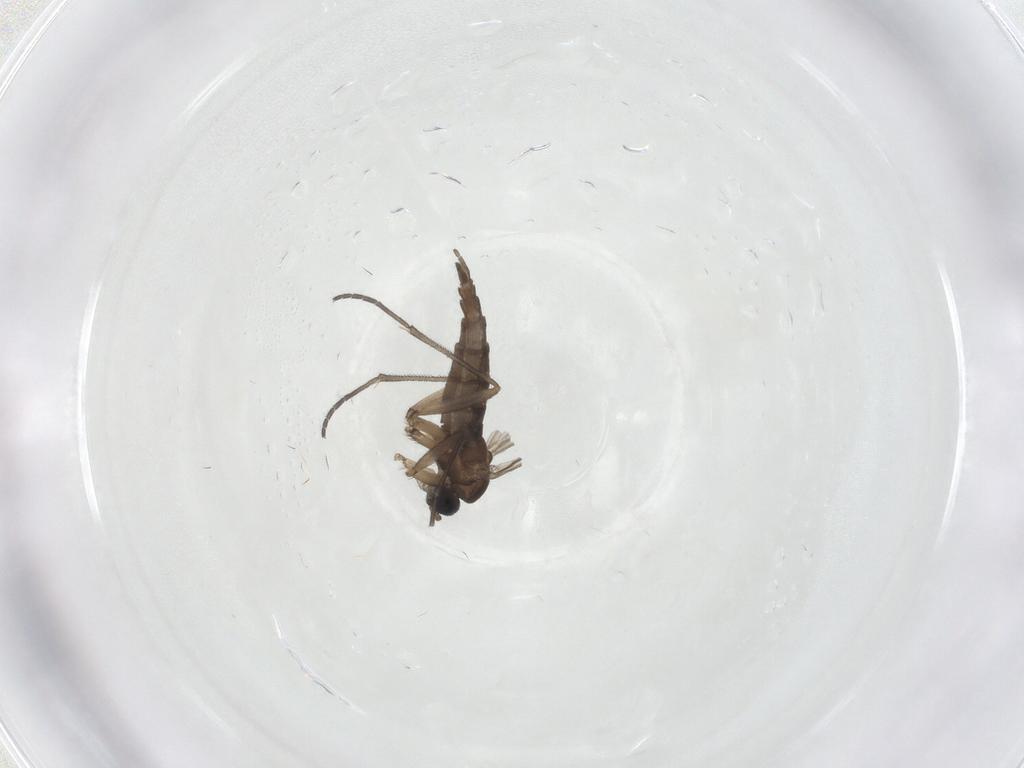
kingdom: Animalia
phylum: Arthropoda
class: Insecta
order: Diptera
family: Sciaridae
